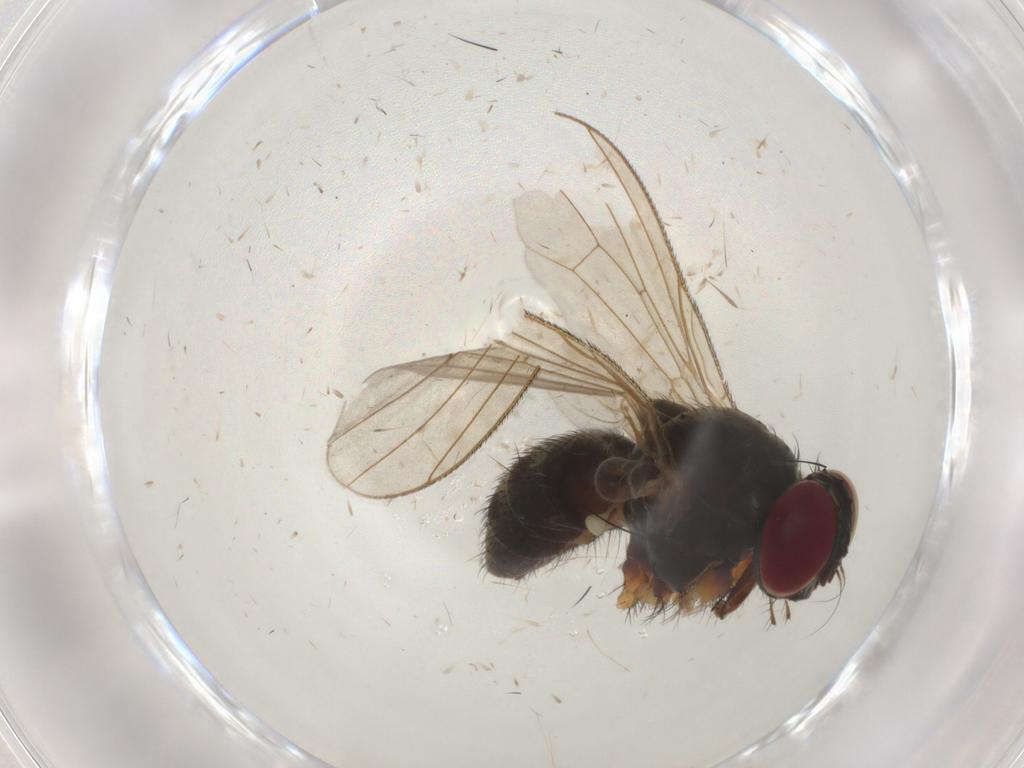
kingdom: Animalia
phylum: Arthropoda
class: Insecta
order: Diptera
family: Muscidae
